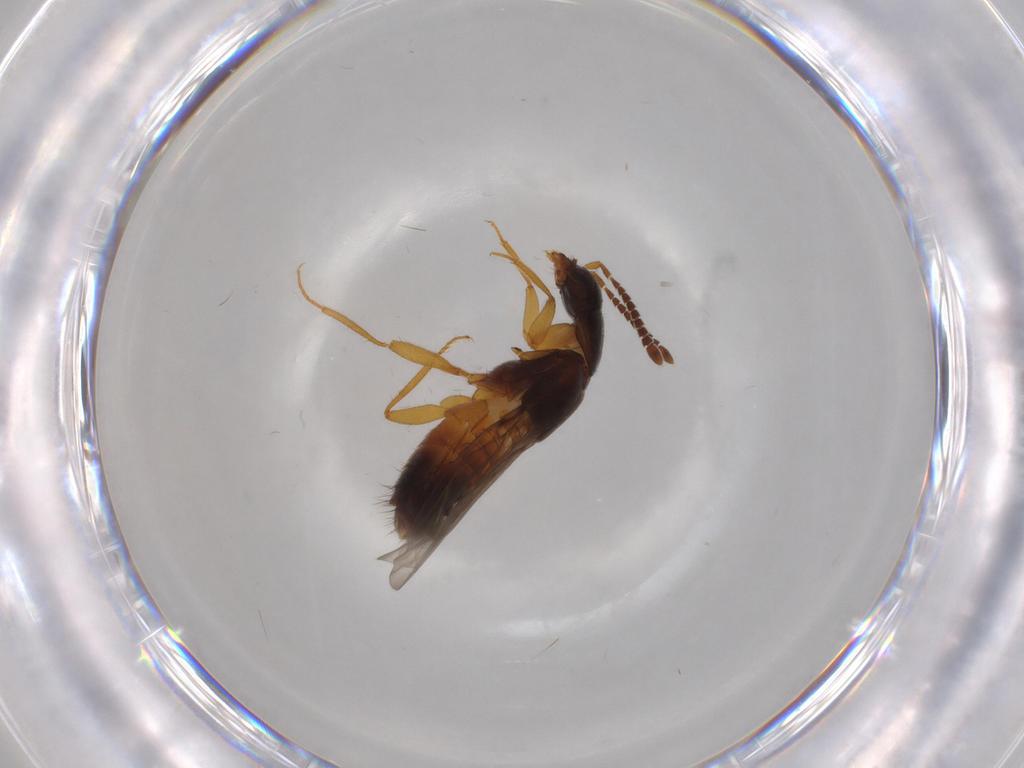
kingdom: Animalia
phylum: Arthropoda
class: Insecta
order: Coleoptera
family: Staphylinidae
